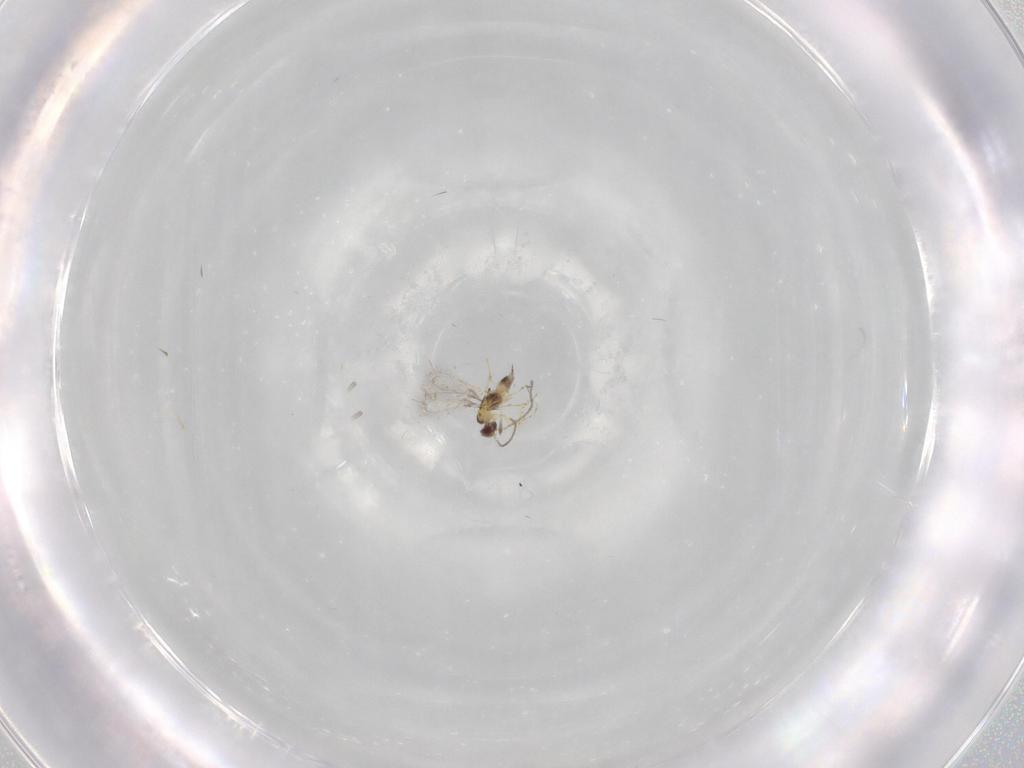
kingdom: Animalia
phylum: Arthropoda
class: Insecta
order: Hymenoptera
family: Mymaridae
